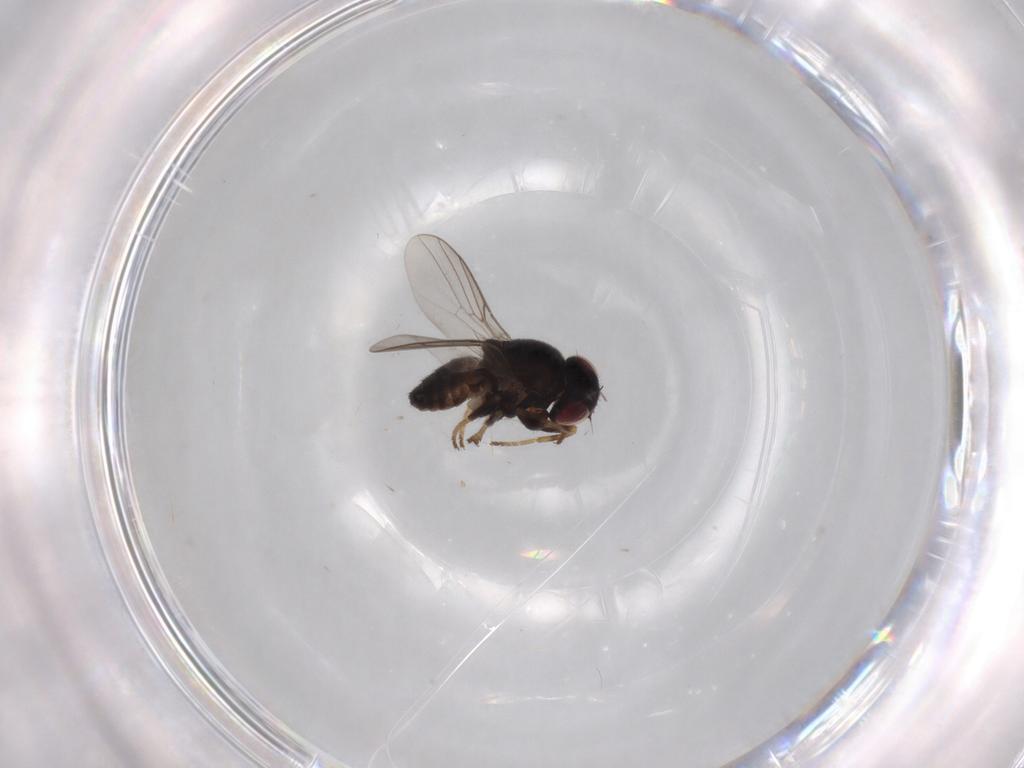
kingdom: Animalia
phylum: Arthropoda
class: Insecta
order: Diptera
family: Chloropidae
